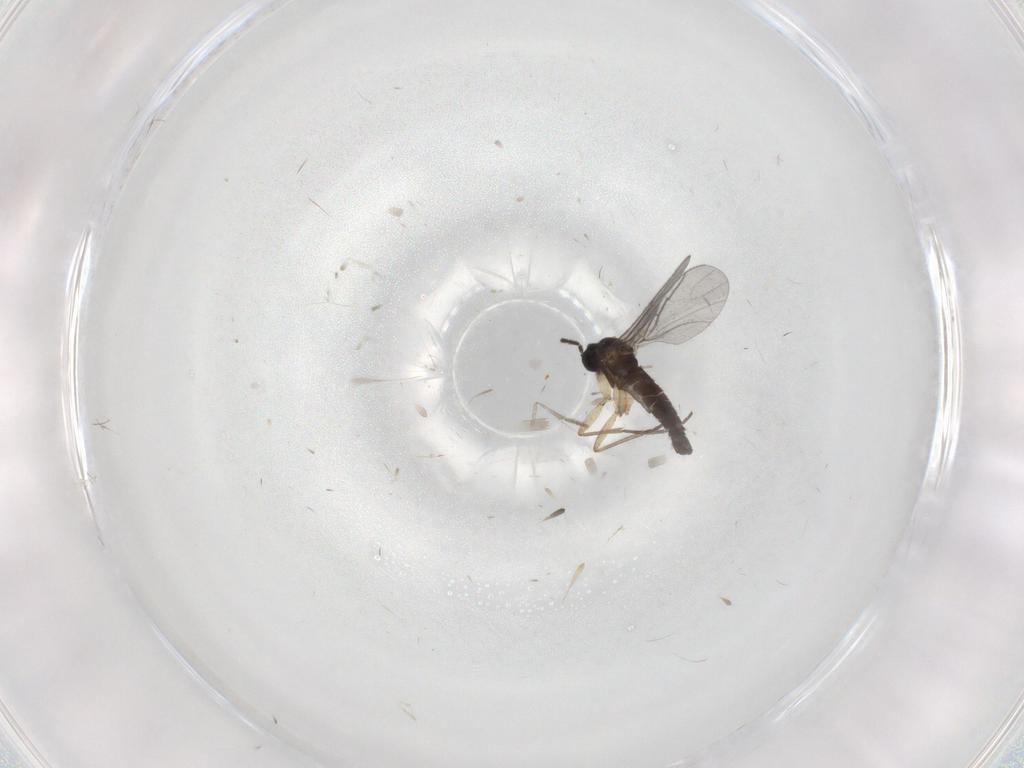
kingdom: Animalia
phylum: Arthropoda
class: Insecta
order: Diptera
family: Sciaridae
